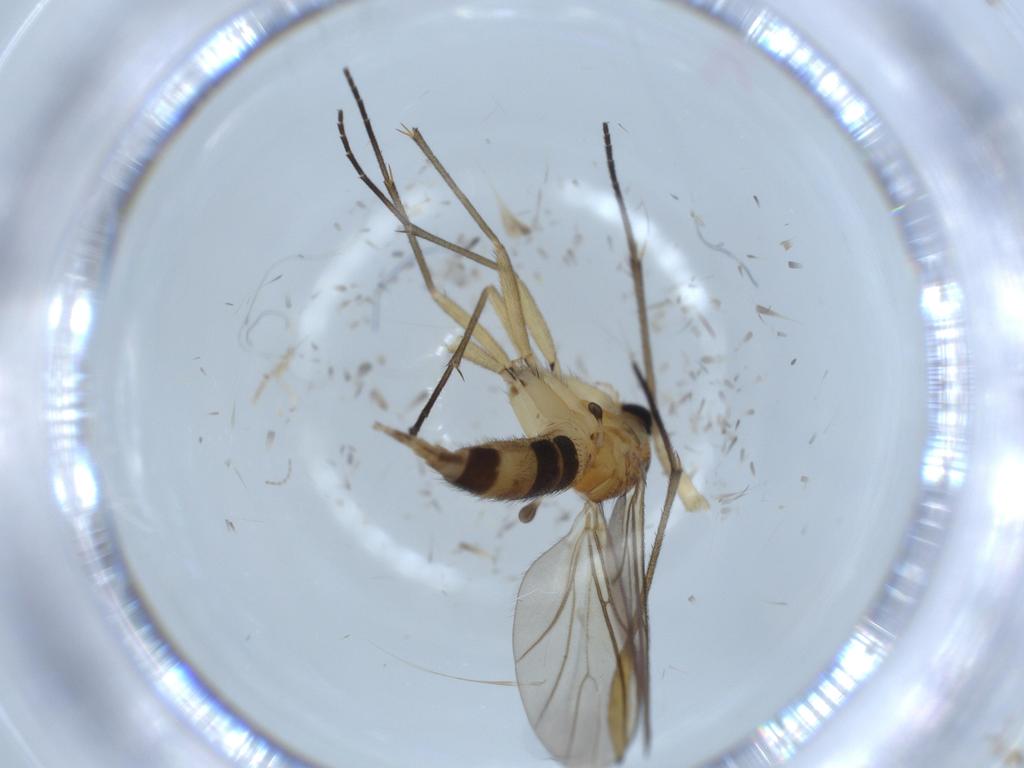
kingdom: Animalia
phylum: Arthropoda
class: Insecta
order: Diptera
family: Sciaridae
